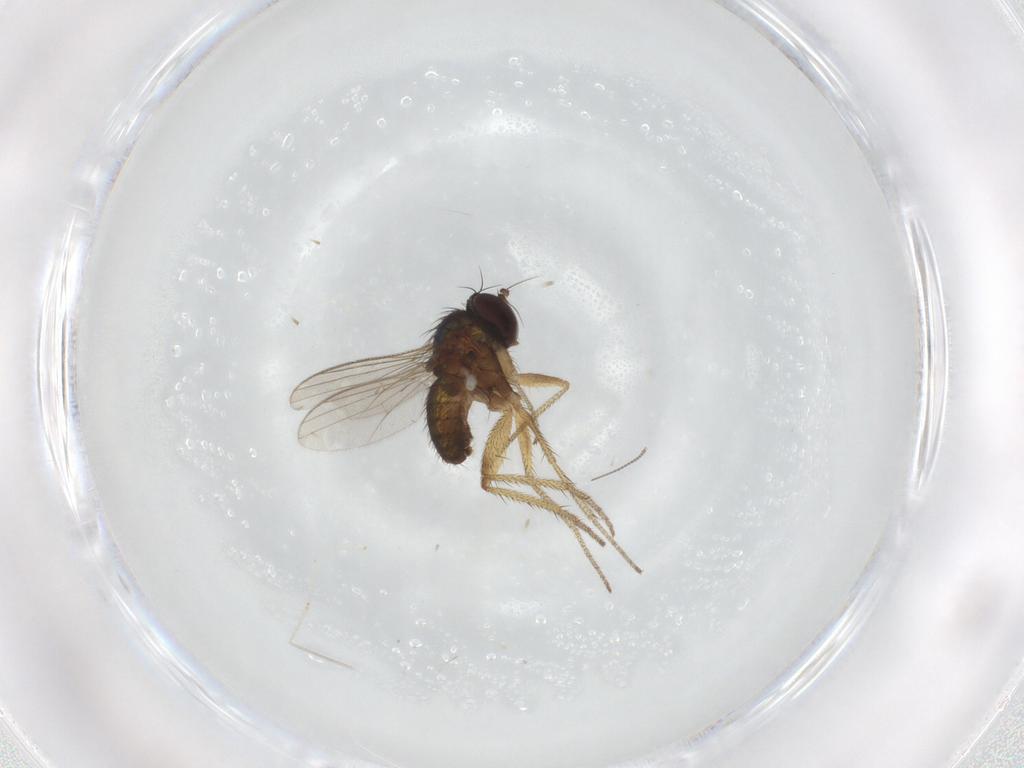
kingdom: Animalia
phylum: Arthropoda
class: Insecta
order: Diptera
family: Chironomidae
